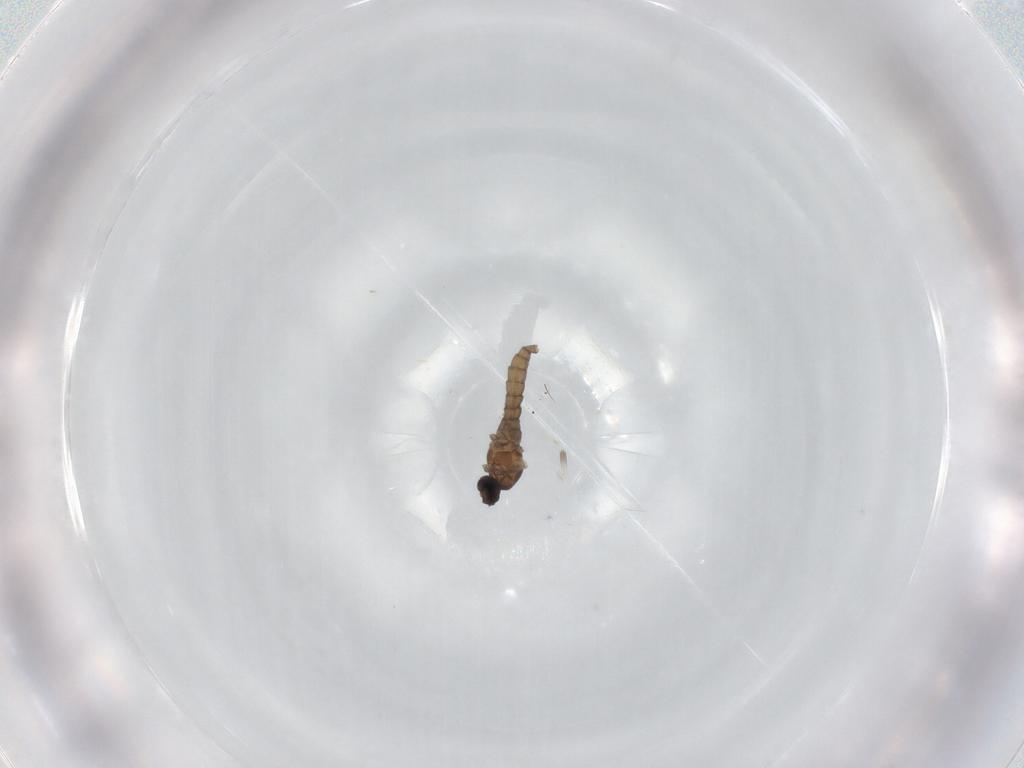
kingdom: Animalia
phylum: Arthropoda
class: Insecta
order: Diptera
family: Cecidomyiidae
